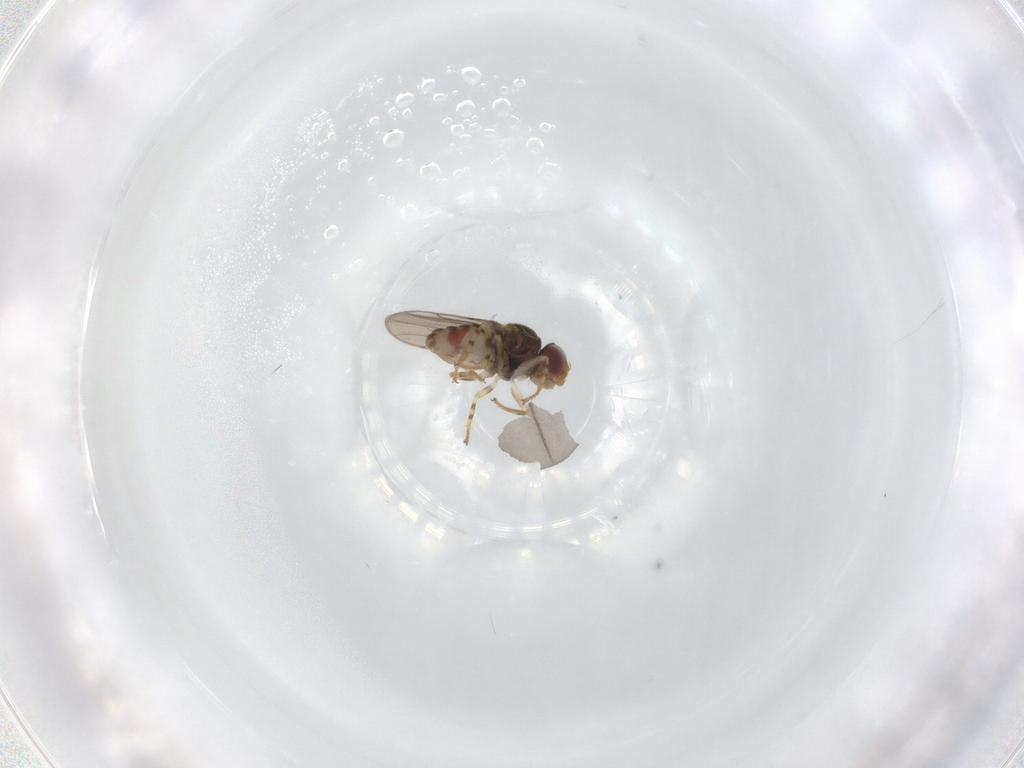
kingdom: Animalia
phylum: Arthropoda
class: Insecta
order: Diptera
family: Chloropidae
